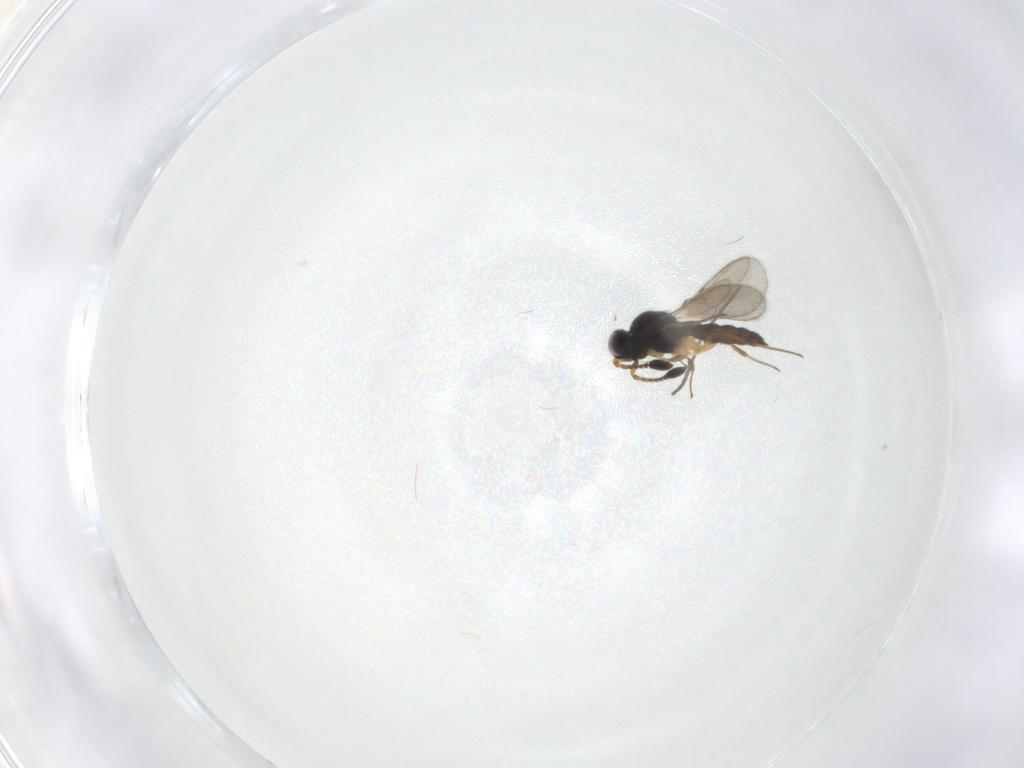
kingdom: Animalia
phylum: Arthropoda
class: Insecta
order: Hymenoptera
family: Scelionidae
